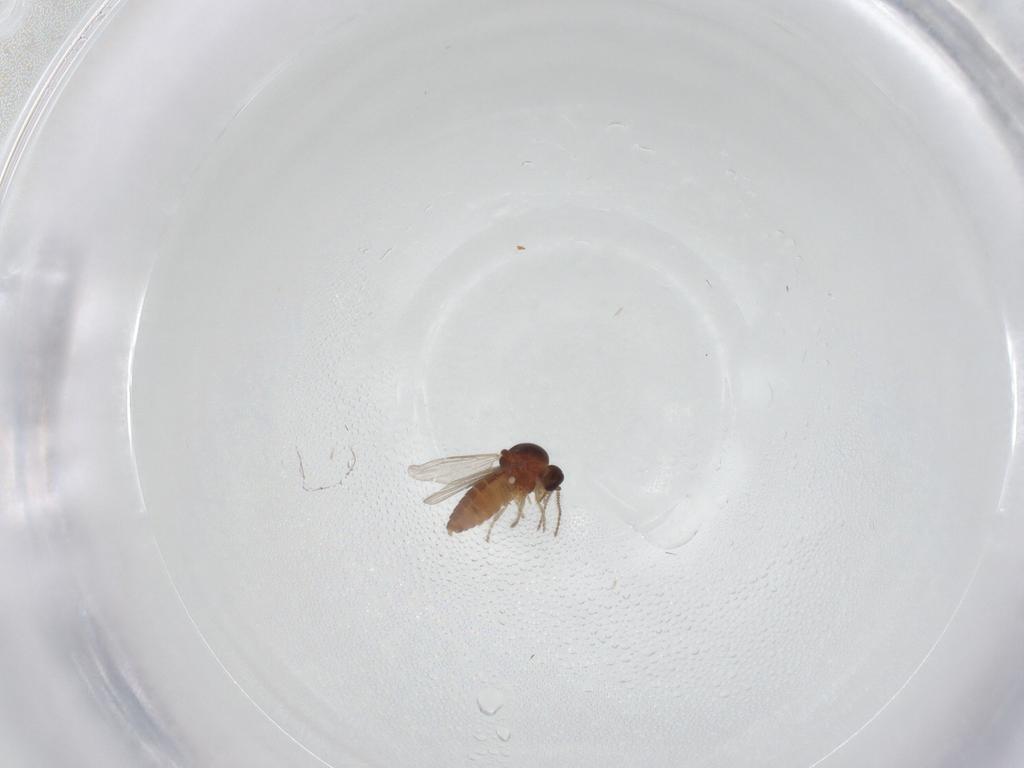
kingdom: Animalia
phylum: Arthropoda
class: Insecta
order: Diptera
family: Ceratopogonidae
